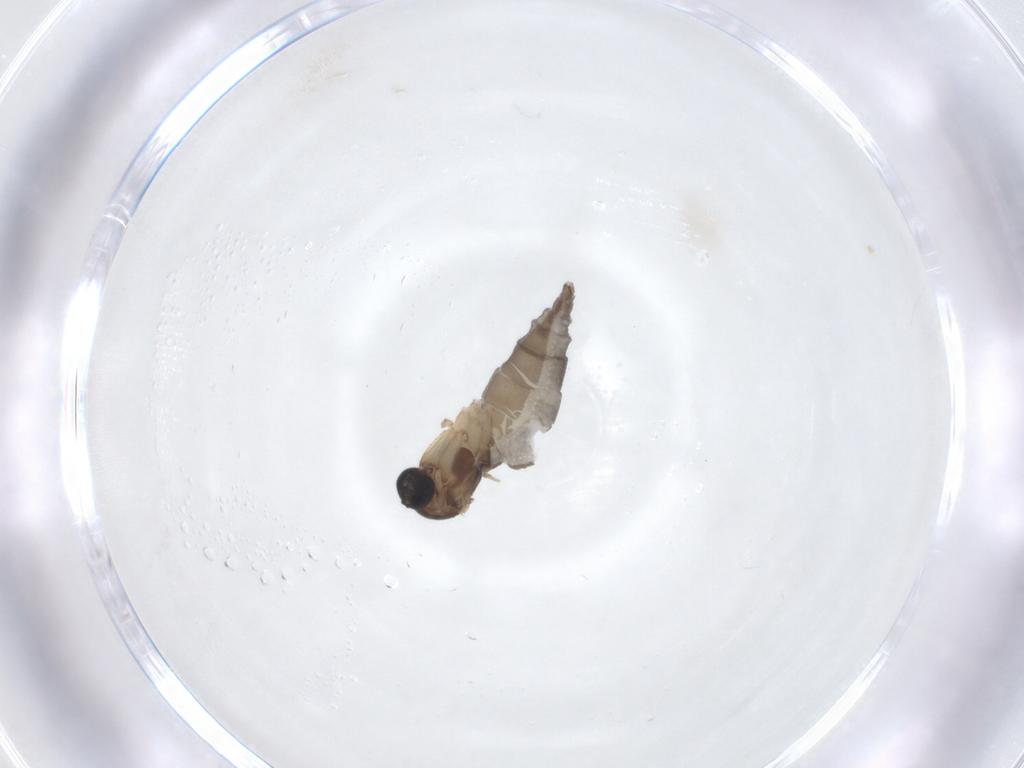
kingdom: Animalia
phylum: Arthropoda
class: Insecta
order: Diptera
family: Sciaridae
